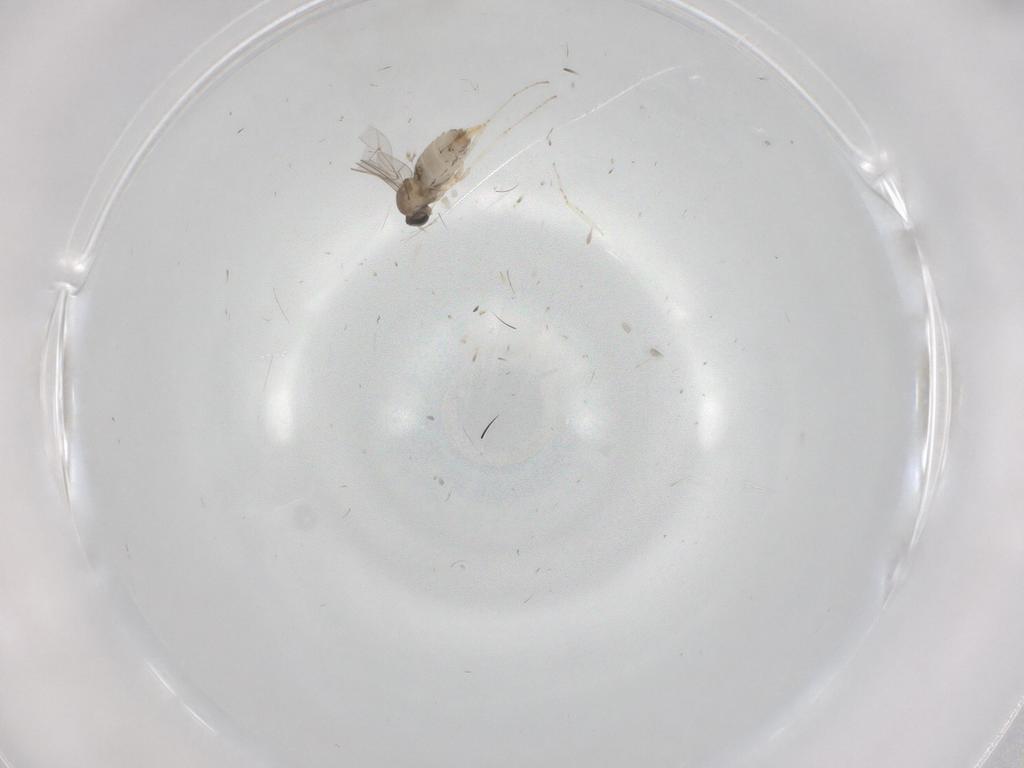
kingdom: Animalia
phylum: Arthropoda
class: Insecta
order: Diptera
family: Cecidomyiidae
